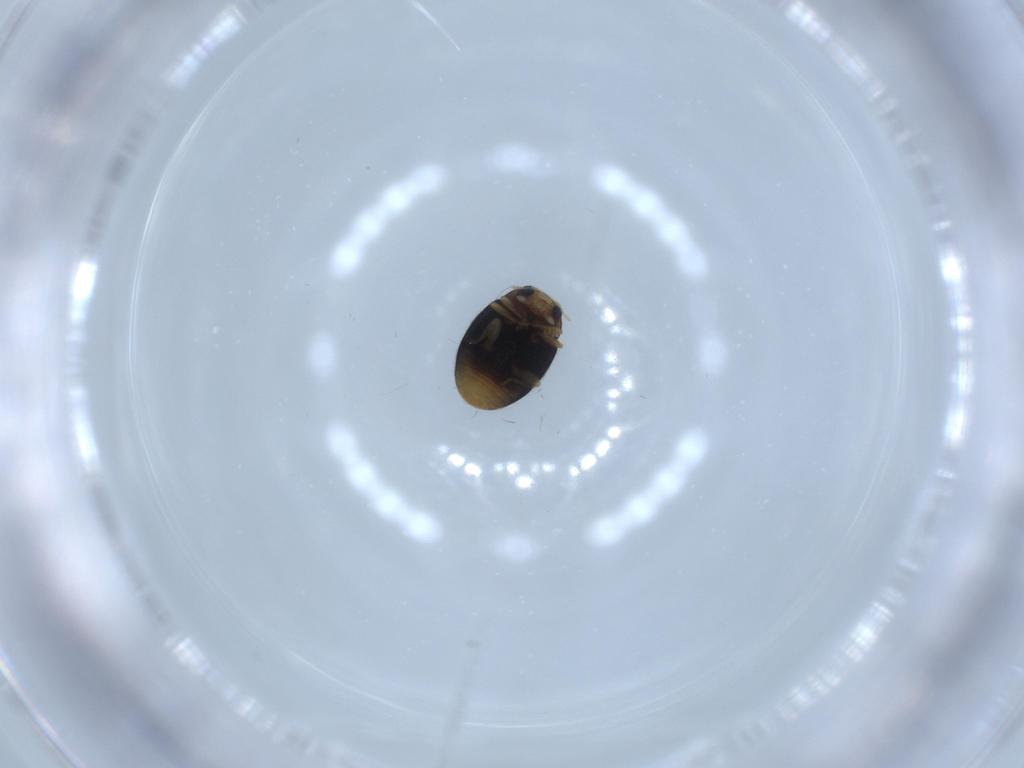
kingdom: Animalia
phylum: Arthropoda
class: Insecta
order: Coleoptera
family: Coccinellidae
